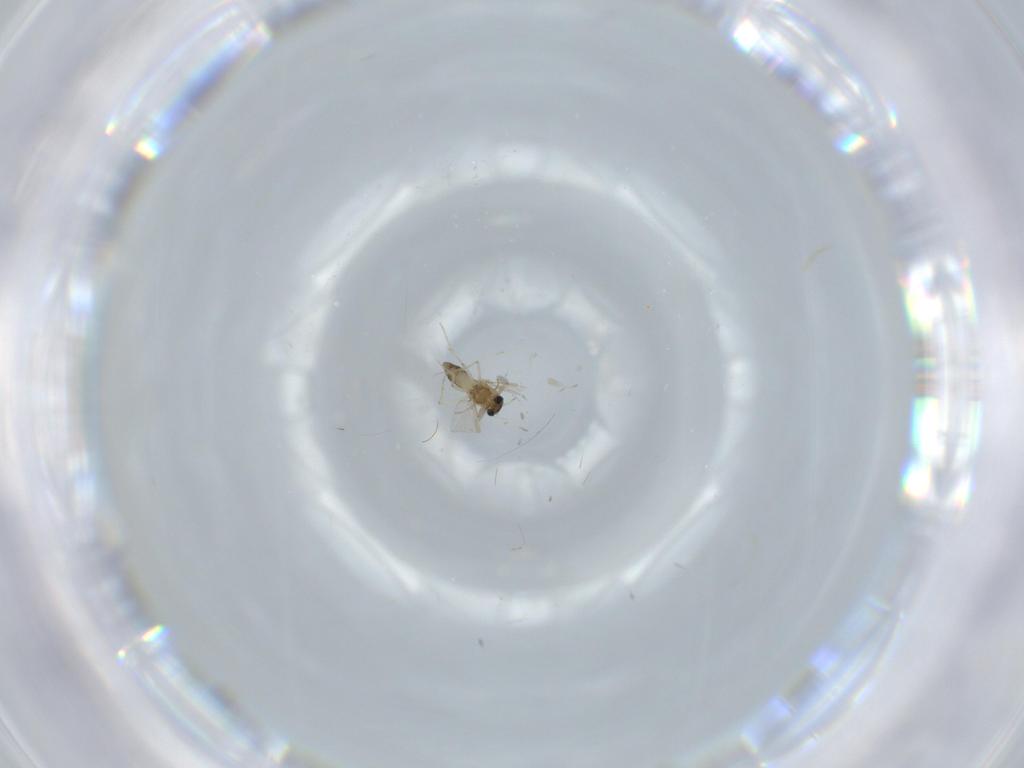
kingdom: Animalia
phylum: Arthropoda
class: Insecta
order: Diptera
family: Chironomidae
